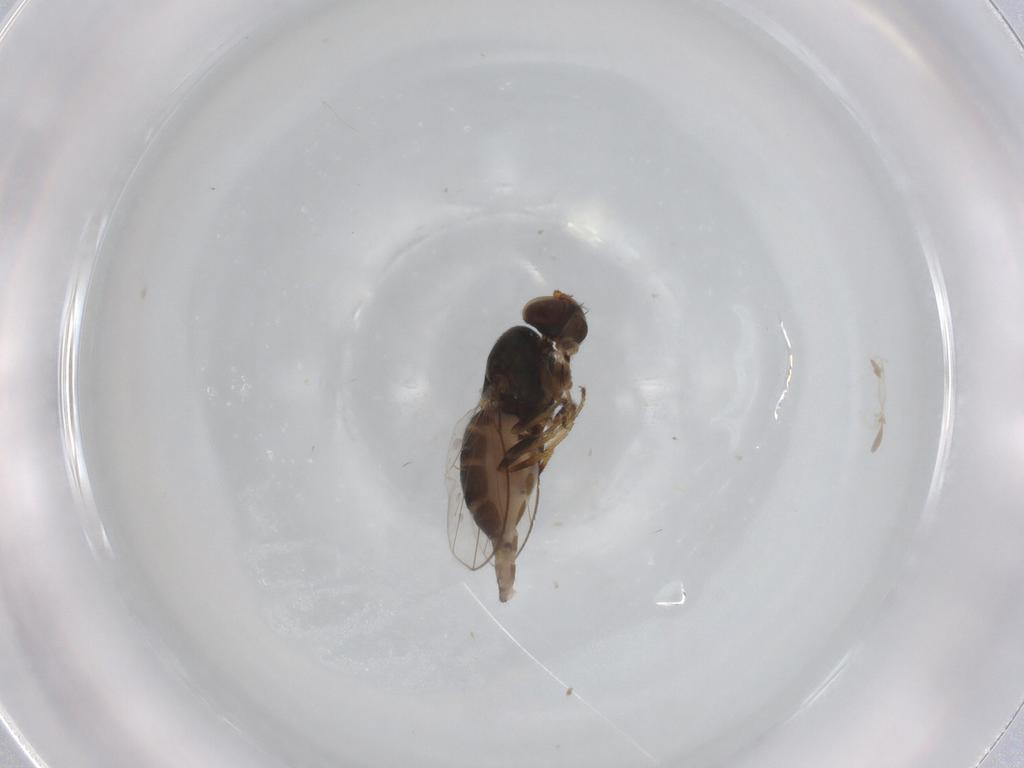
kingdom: Animalia
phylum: Arthropoda
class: Insecta
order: Diptera
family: Ephydridae
